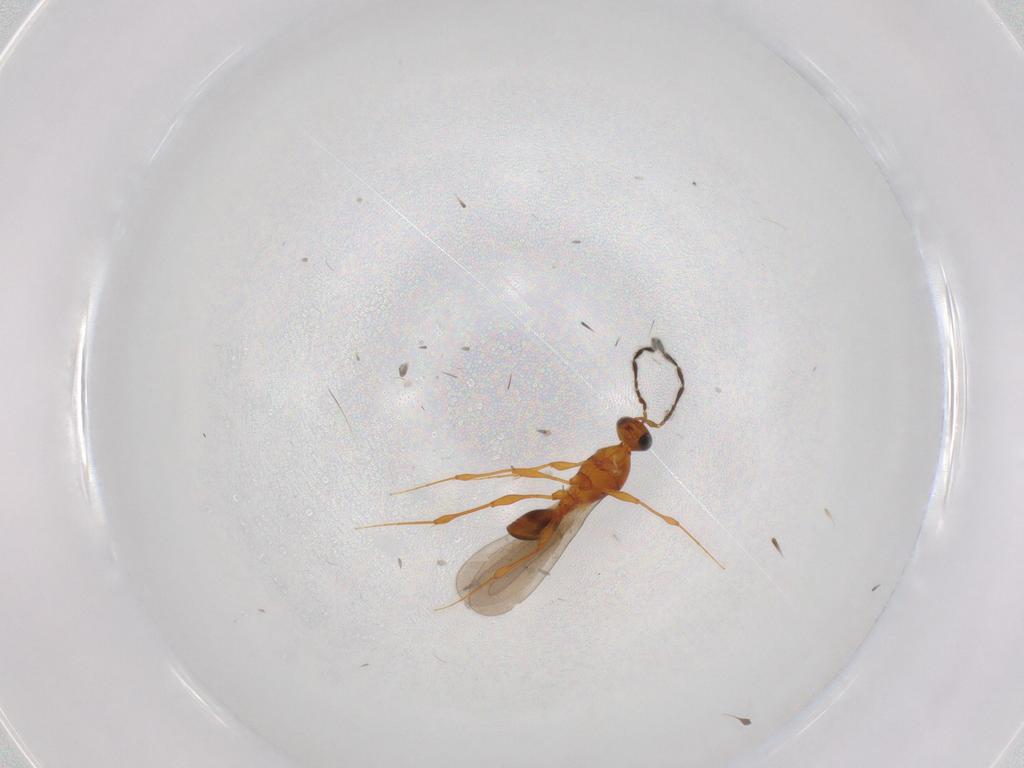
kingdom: Animalia
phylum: Arthropoda
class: Insecta
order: Hymenoptera
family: Platygastridae
